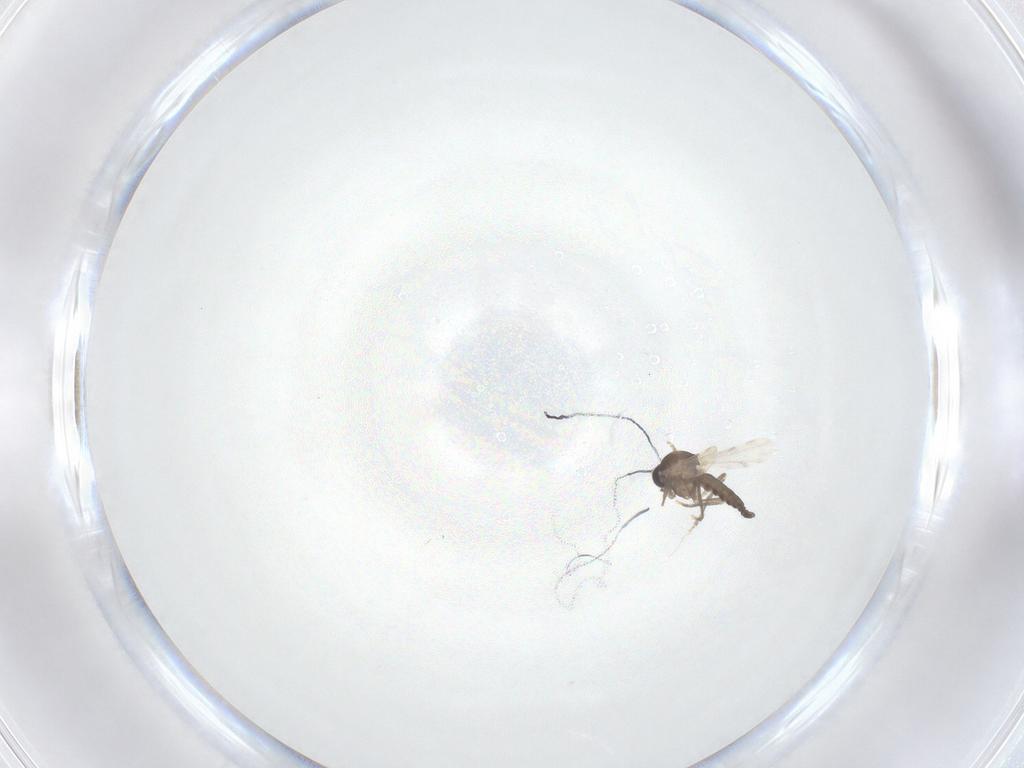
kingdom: Animalia
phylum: Arthropoda
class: Insecta
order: Diptera
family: Ceratopogonidae
